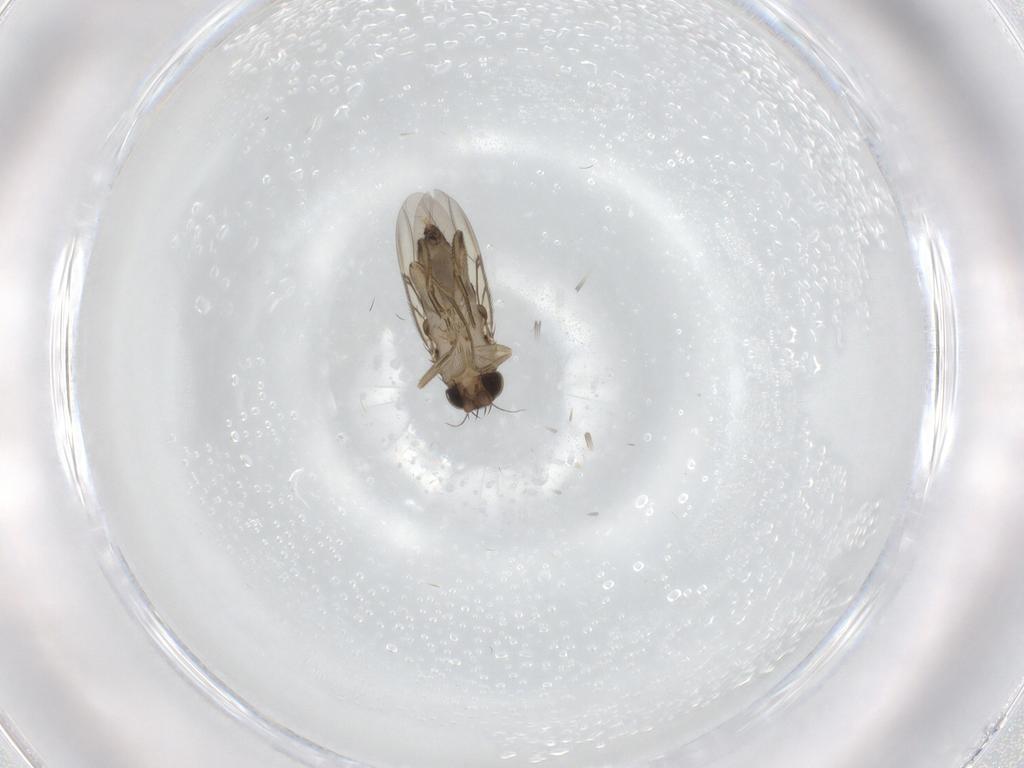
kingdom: Animalia
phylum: Arthropoda
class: Insecta
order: Diptera
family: Phoridae
